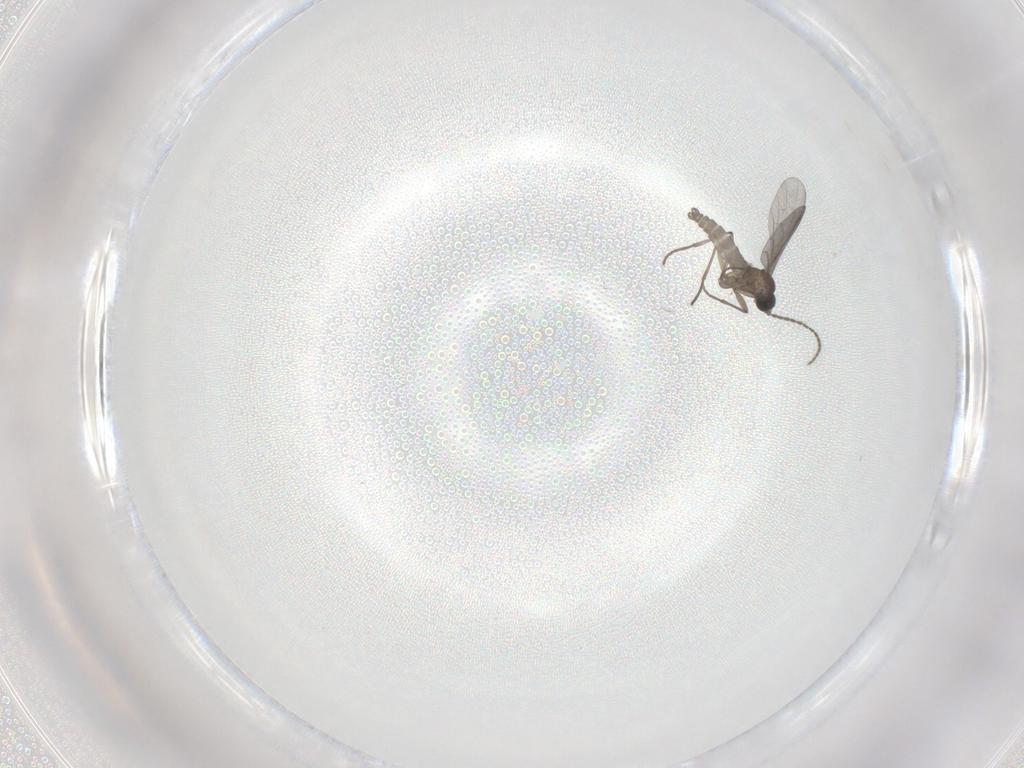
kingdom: Animalia
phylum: Arthropoda
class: Insecta
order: Diptera
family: Cecidomyiidae
